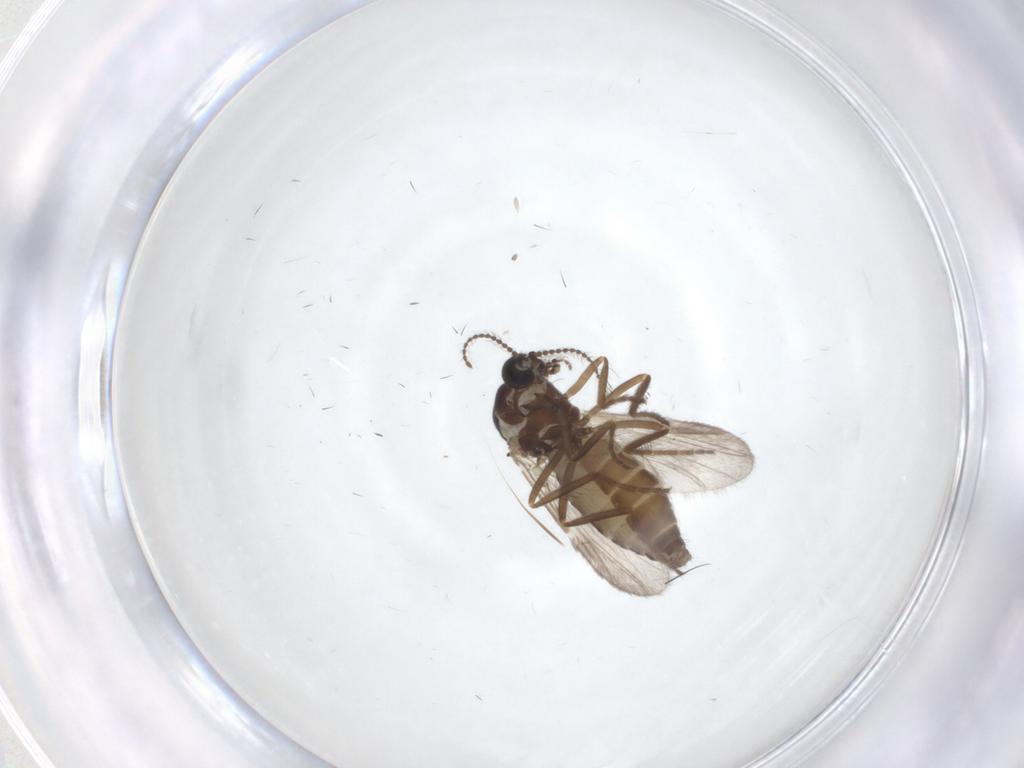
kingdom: Animalia
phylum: Arthropoda
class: Insecta
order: Diptera
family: Ceratopogonidae
